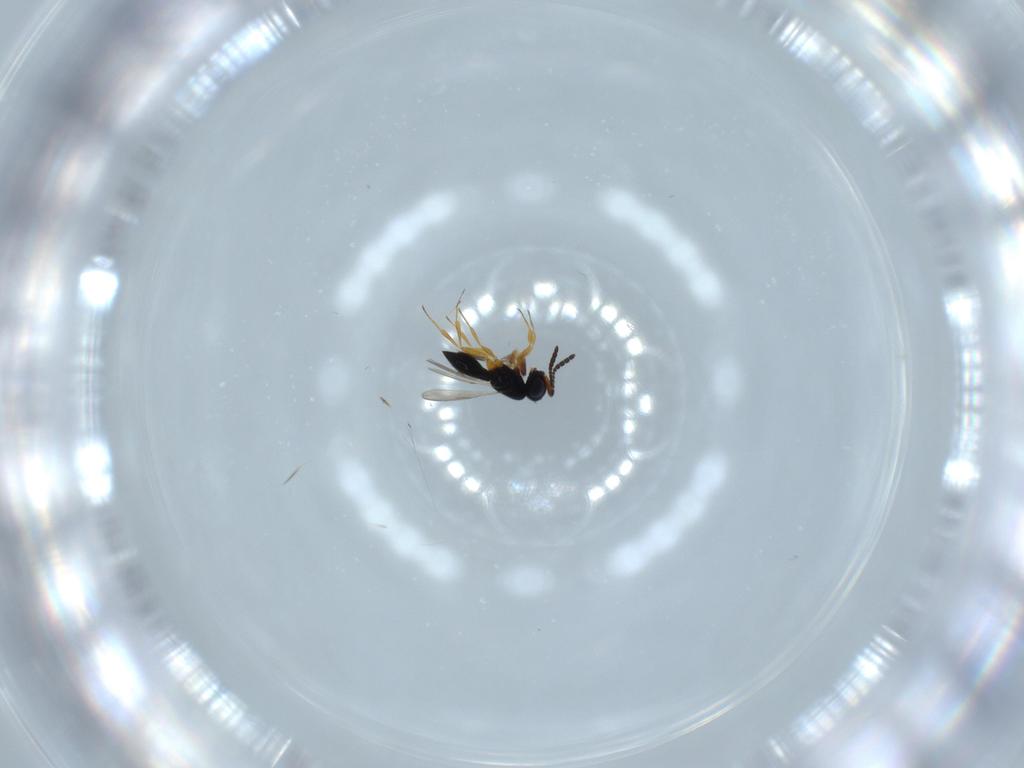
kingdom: Animalia
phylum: Arthropoda
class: Insecta
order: Hymenoptera
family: Scelionidae
